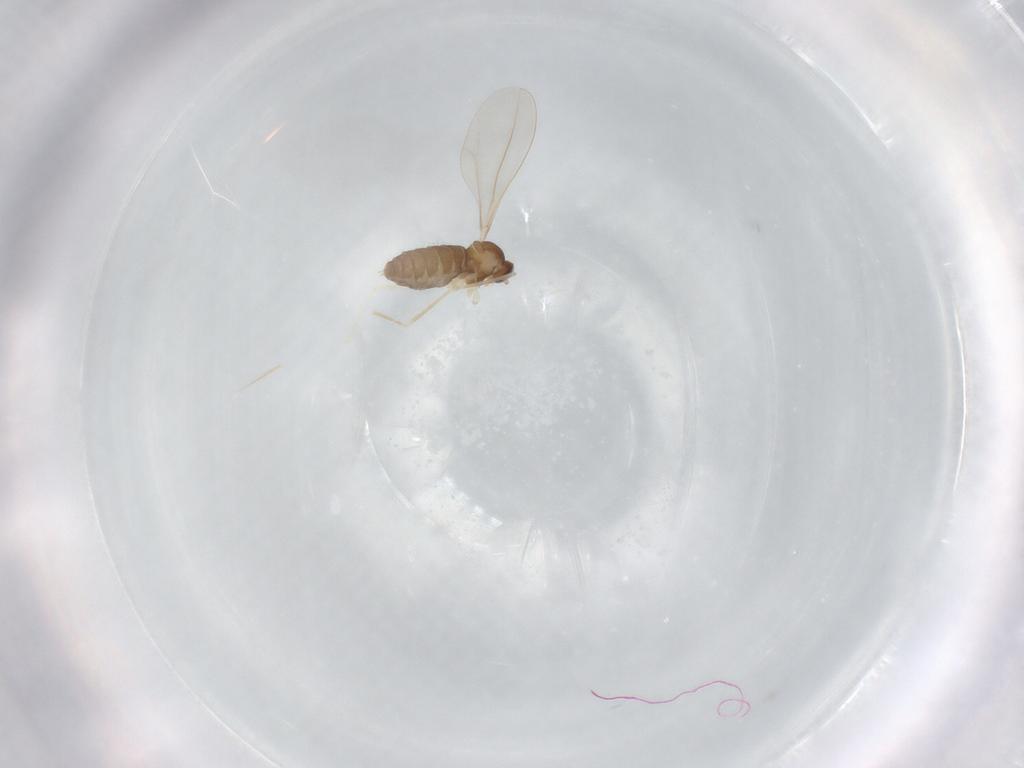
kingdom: Animalia
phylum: Arthropoda
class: Insecta
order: Diptera
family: Cecidomyiidae
